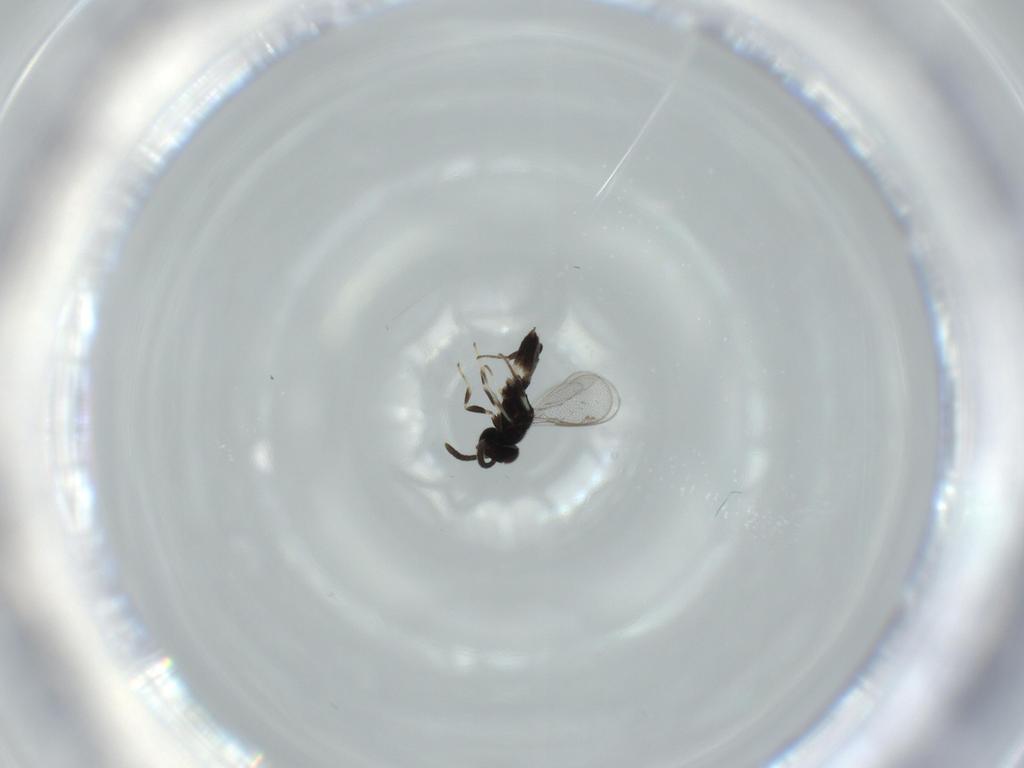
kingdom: Animalia
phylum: Arthropoda
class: Insecta
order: Hymenoptera
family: Eupelmidae
